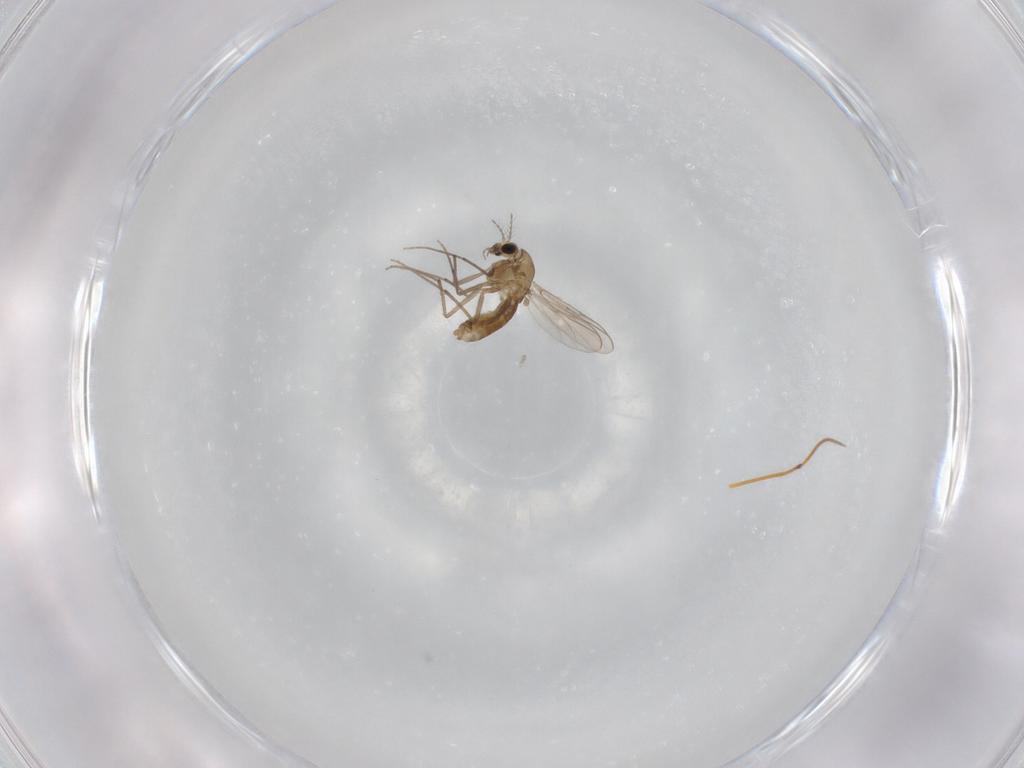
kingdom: Animalia
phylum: Arthropoda
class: Insecta
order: Diptera
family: Chironomidae
